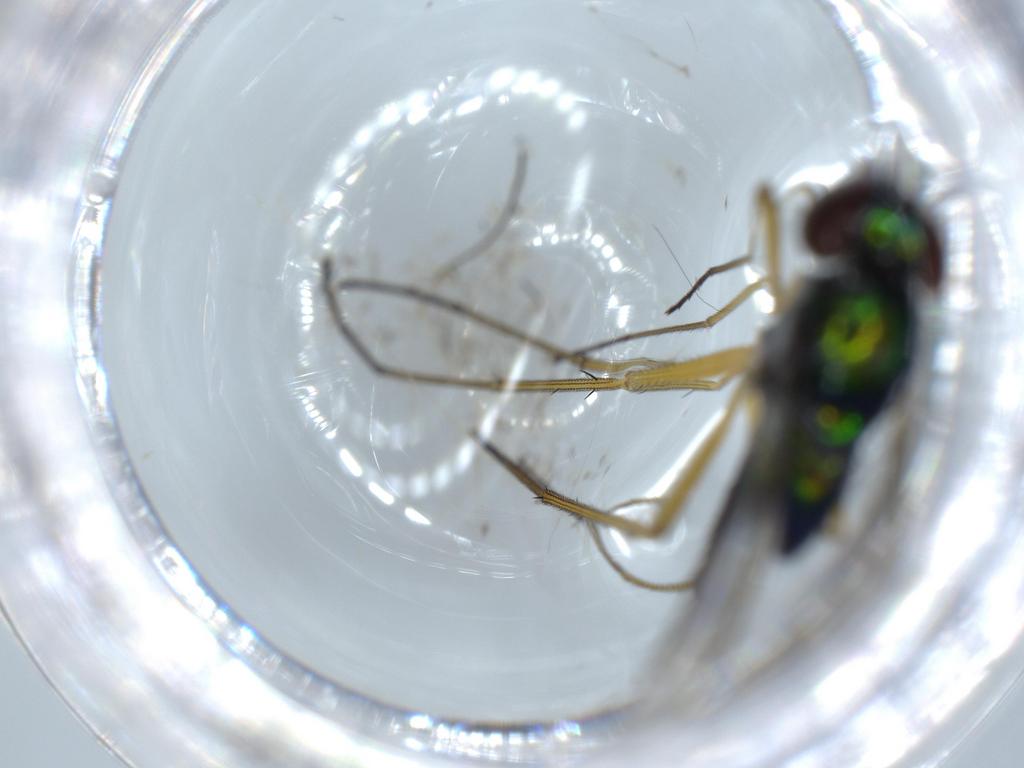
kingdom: Animalia
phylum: Arthropoda
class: Insecta
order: Diptera
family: Dolichopodidae
